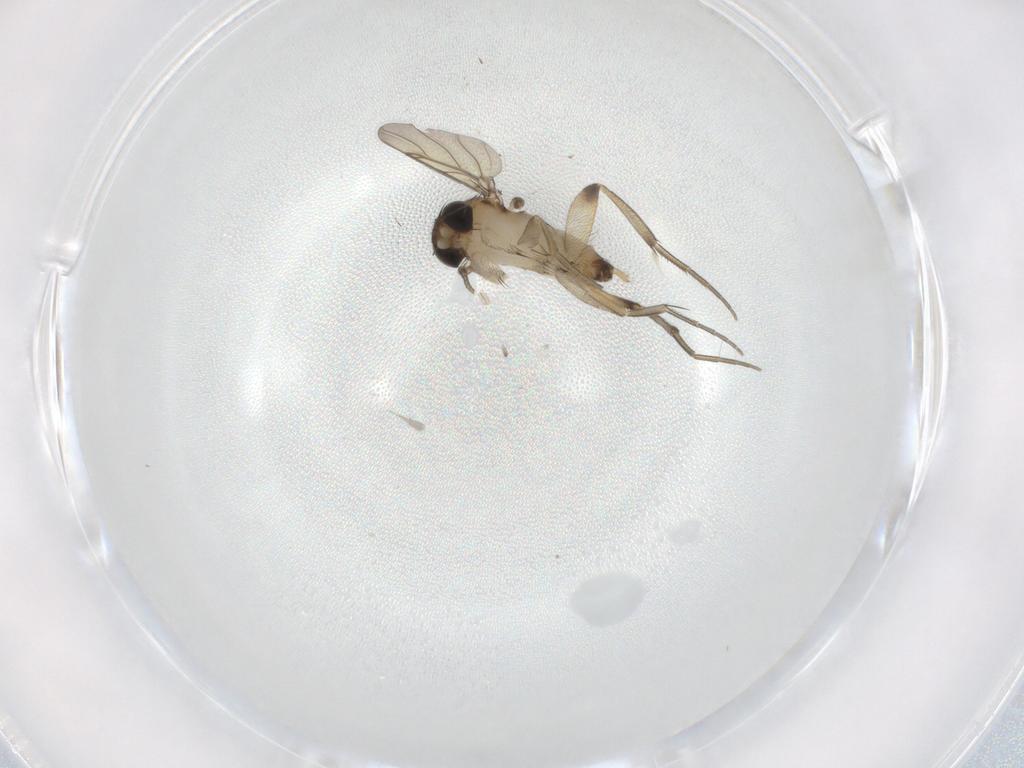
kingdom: Animalia
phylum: Arthropoda
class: Insecta
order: Diptera
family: Phoridae
